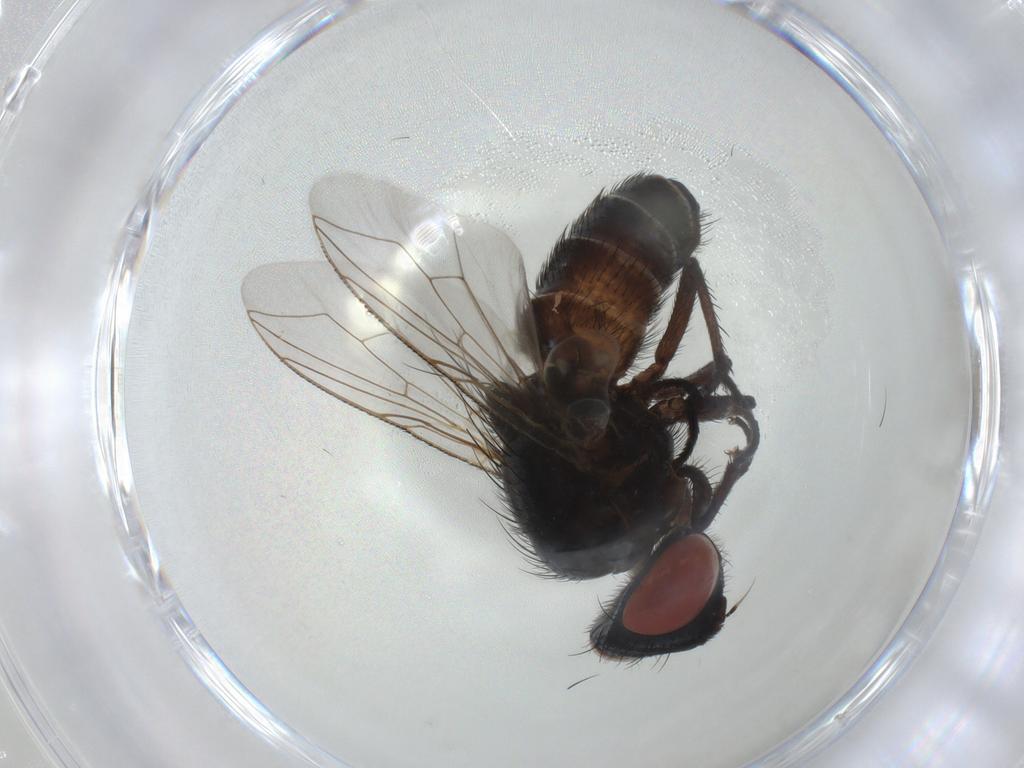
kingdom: Animalia
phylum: Arthropoda
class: Insecta
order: Diptera
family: Sarcophagidae
